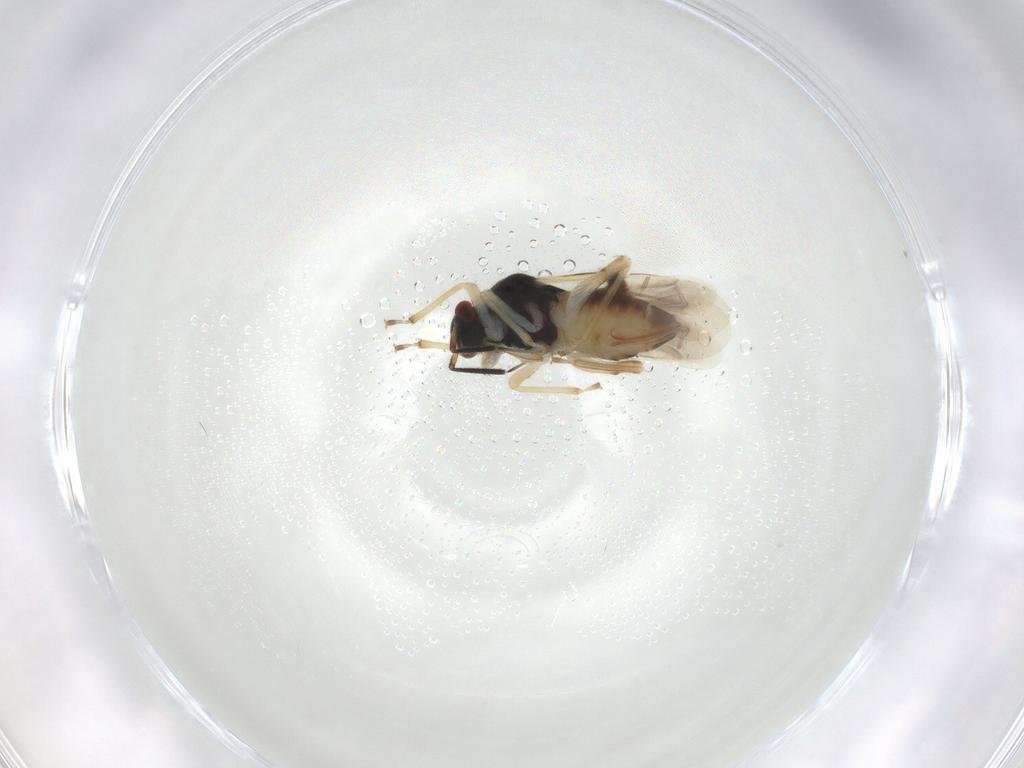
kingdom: Animalia
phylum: Arthropoda
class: Insecta
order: Hemiptera
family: Miridae
